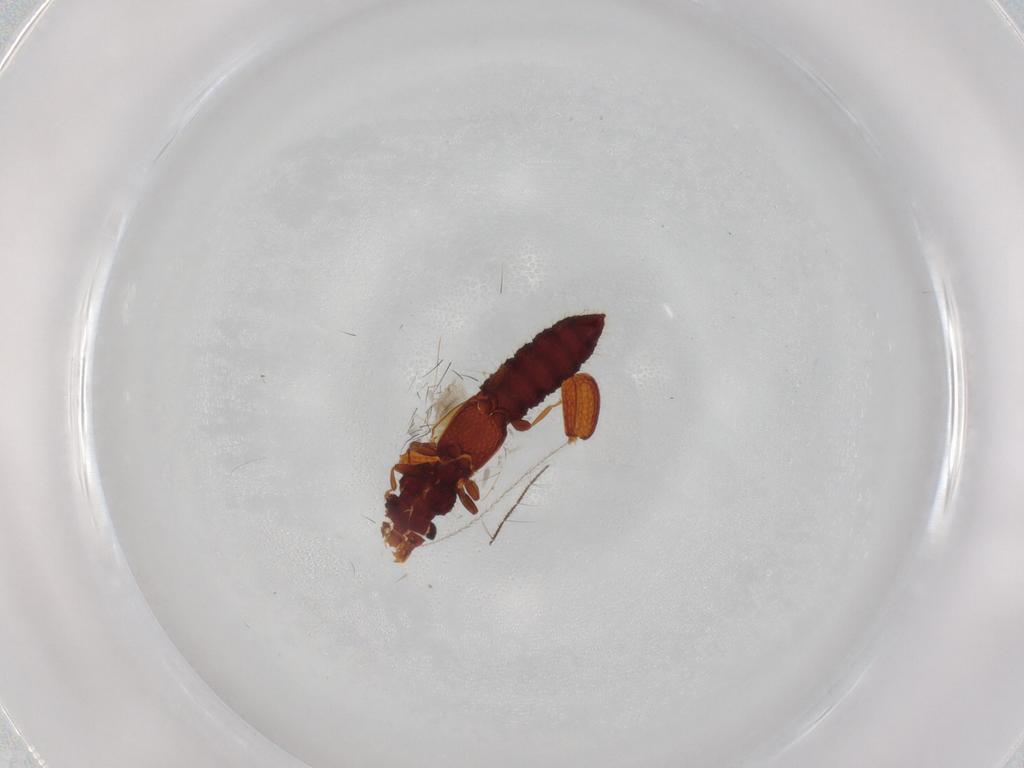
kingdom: Animalia
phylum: Arthropoda
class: Insecta
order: Coleoptera
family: Staphylinidae
